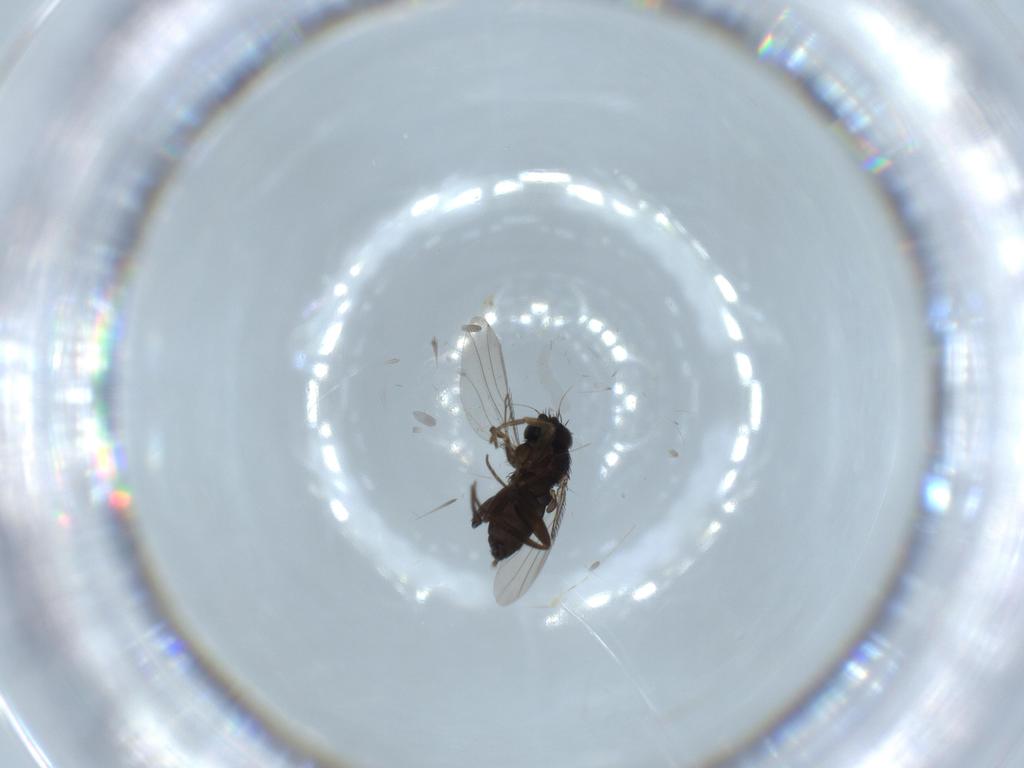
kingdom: Animalia
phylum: Arthropoda
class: Insecta
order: Diptera
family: Phoridae
